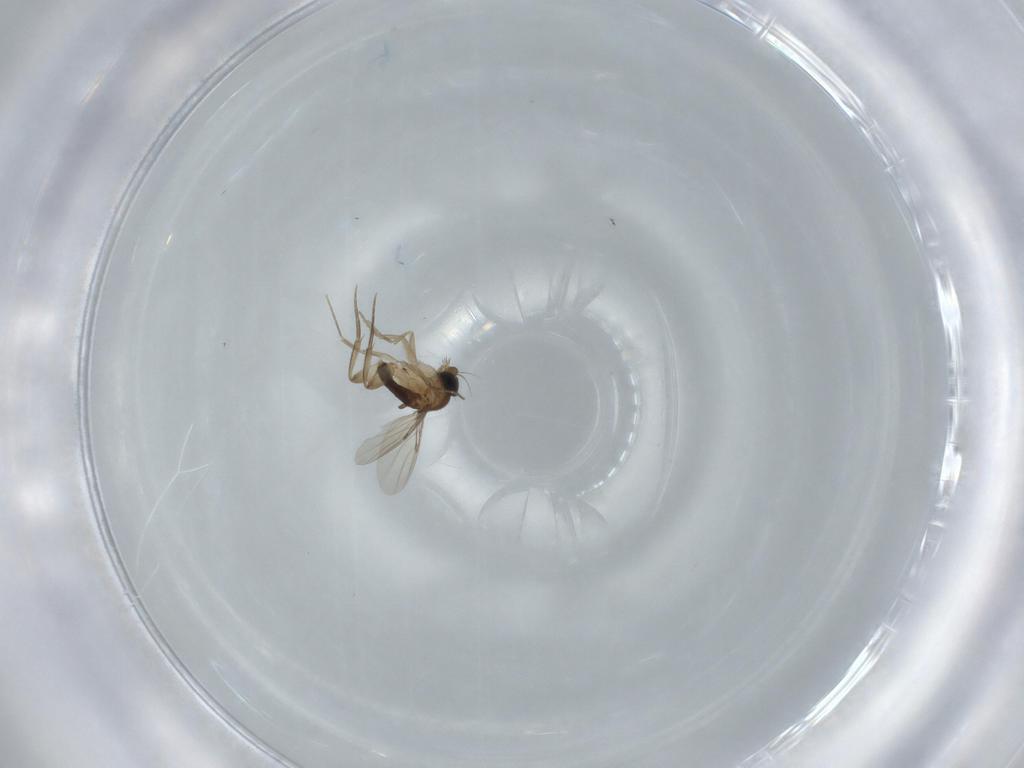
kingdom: Animalia
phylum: Arthropoda
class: Insecta
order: Diptera
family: Phoridae
